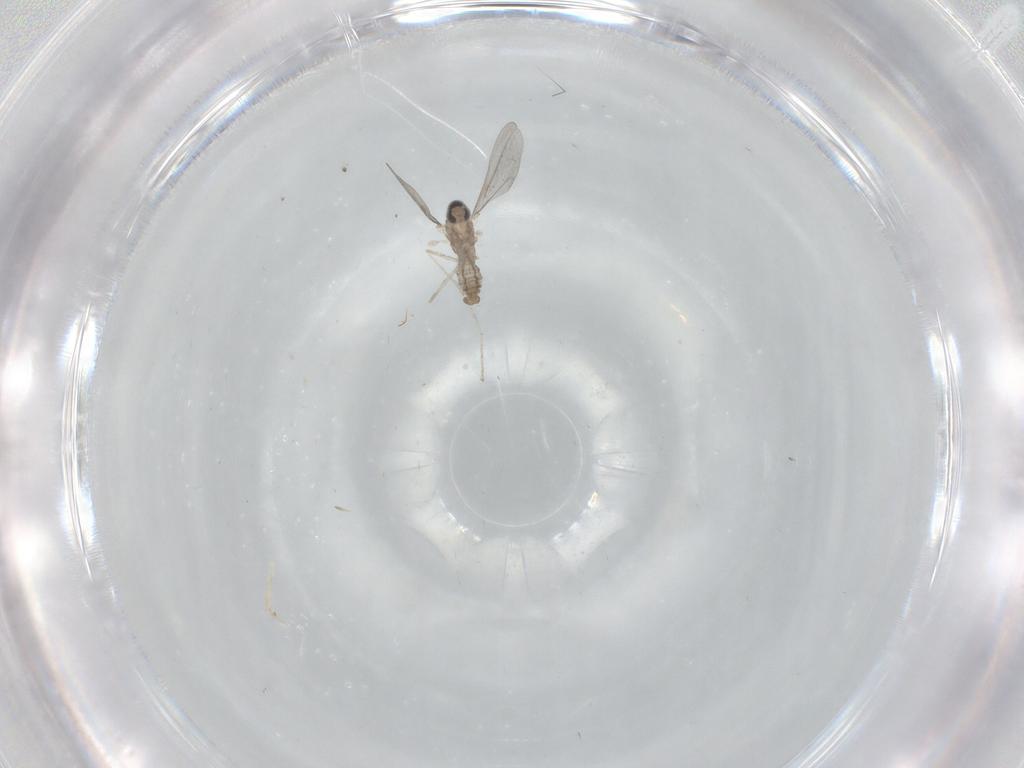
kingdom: Animalia
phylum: Arthropoda
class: Insecta
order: Diptera
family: Cecidomyiidae
